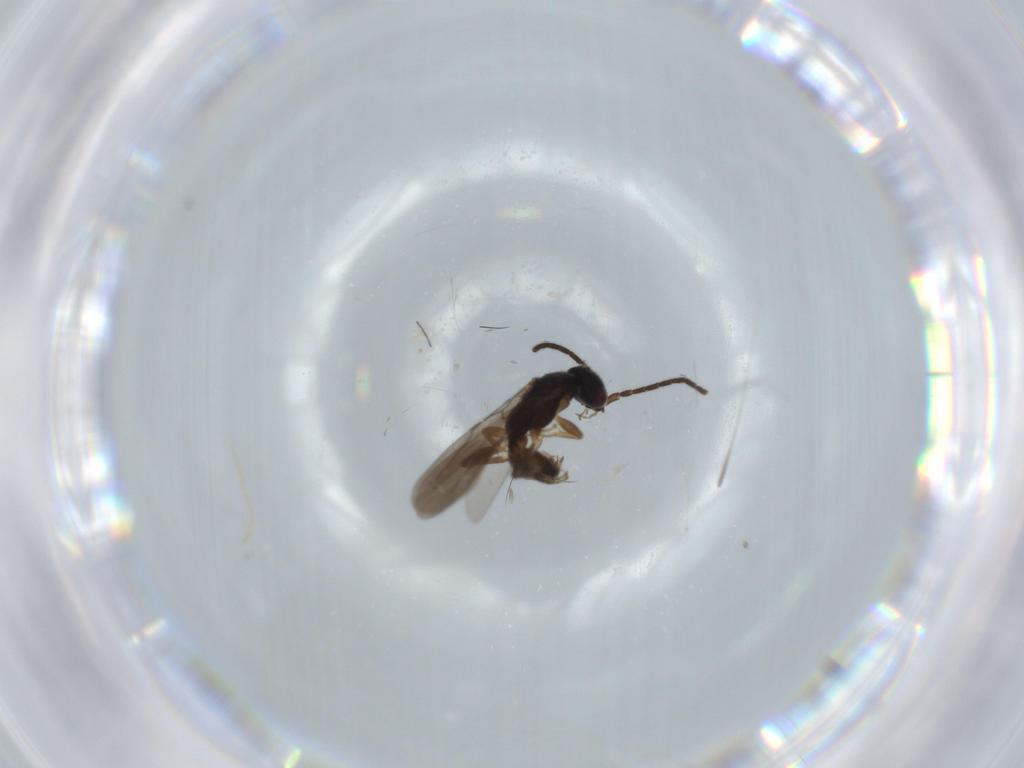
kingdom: Animalia
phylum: Arthropoda
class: Insecta
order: Hymenoptera
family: Bethylidae
